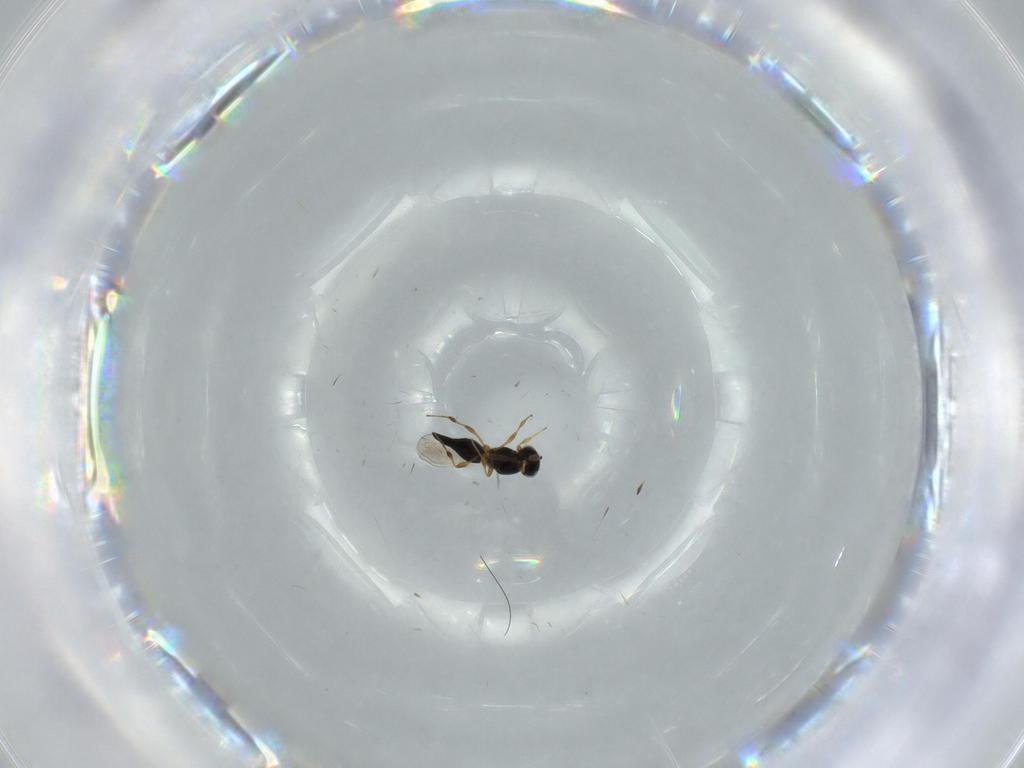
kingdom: Animalia
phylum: Arthropoda
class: Insecta
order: Hymenoptera
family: Platygastridae
